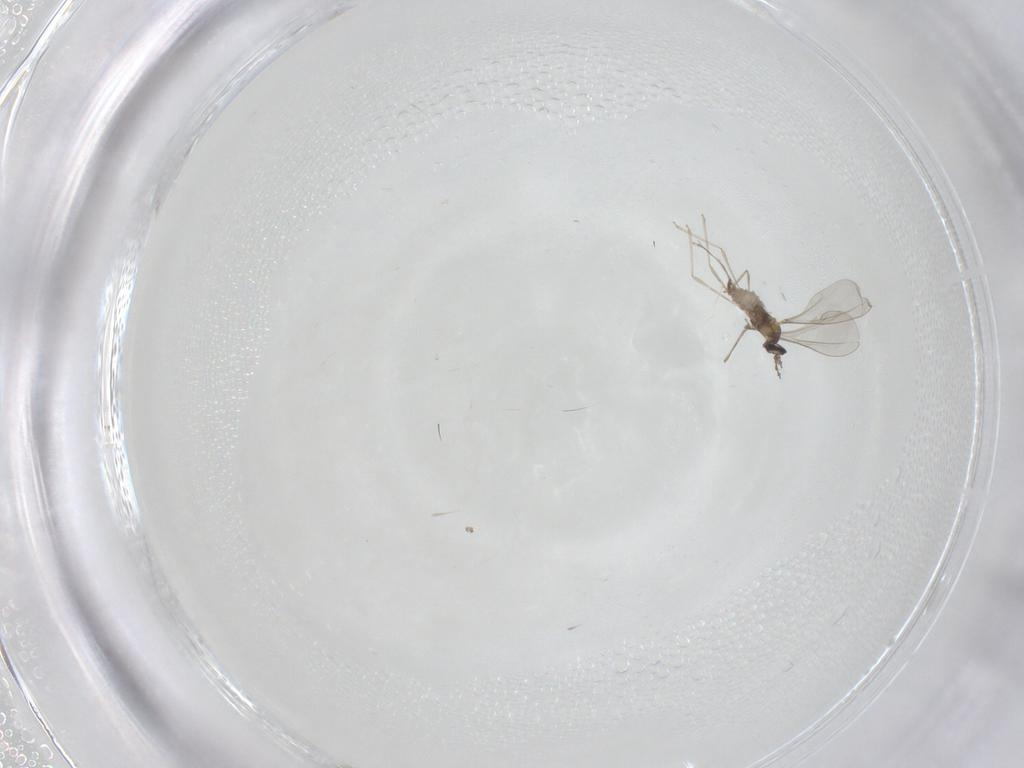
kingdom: Animalia
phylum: Arthropoda
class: Insecta
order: Diptera
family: Cecidomyiidae
